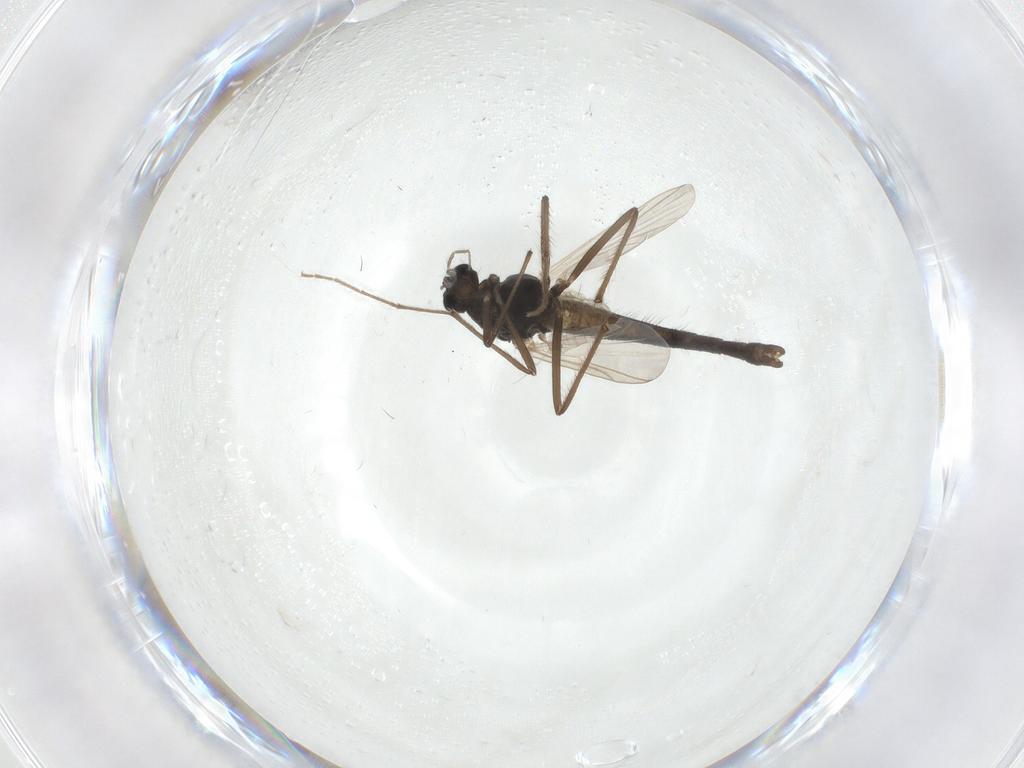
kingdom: Animalia
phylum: Arthropoda
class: Insecta
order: Diptera
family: Chironomidae
